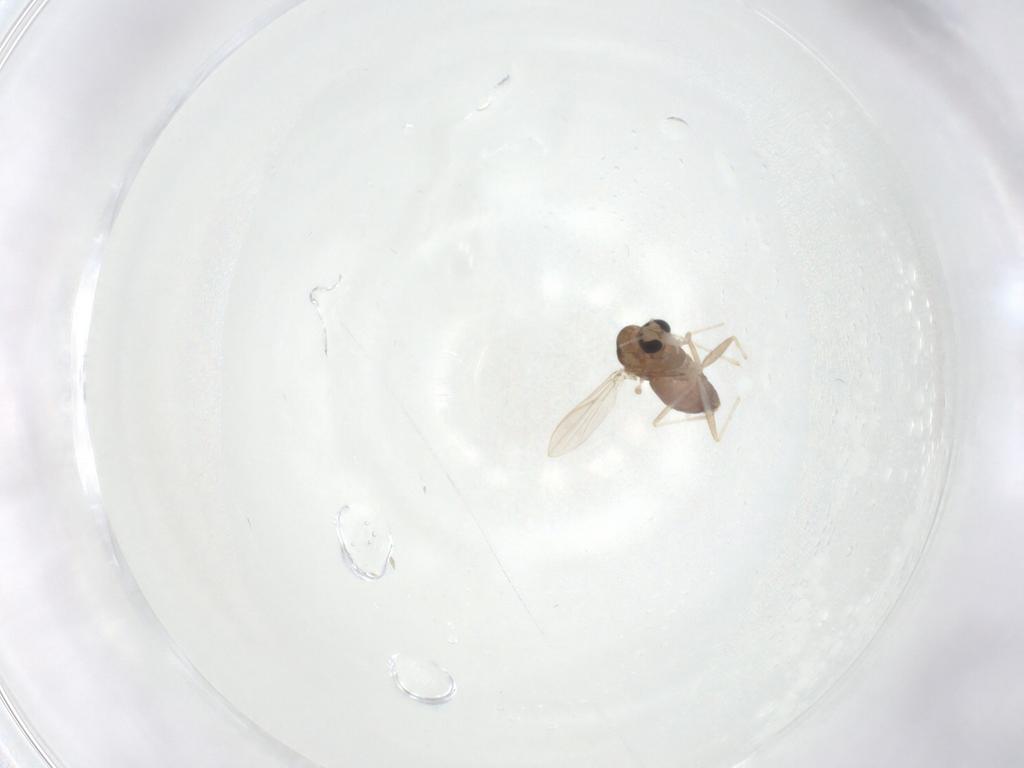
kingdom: Animalia
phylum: Arthropoda
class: Insecta
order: Diptera
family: Chironomidae
